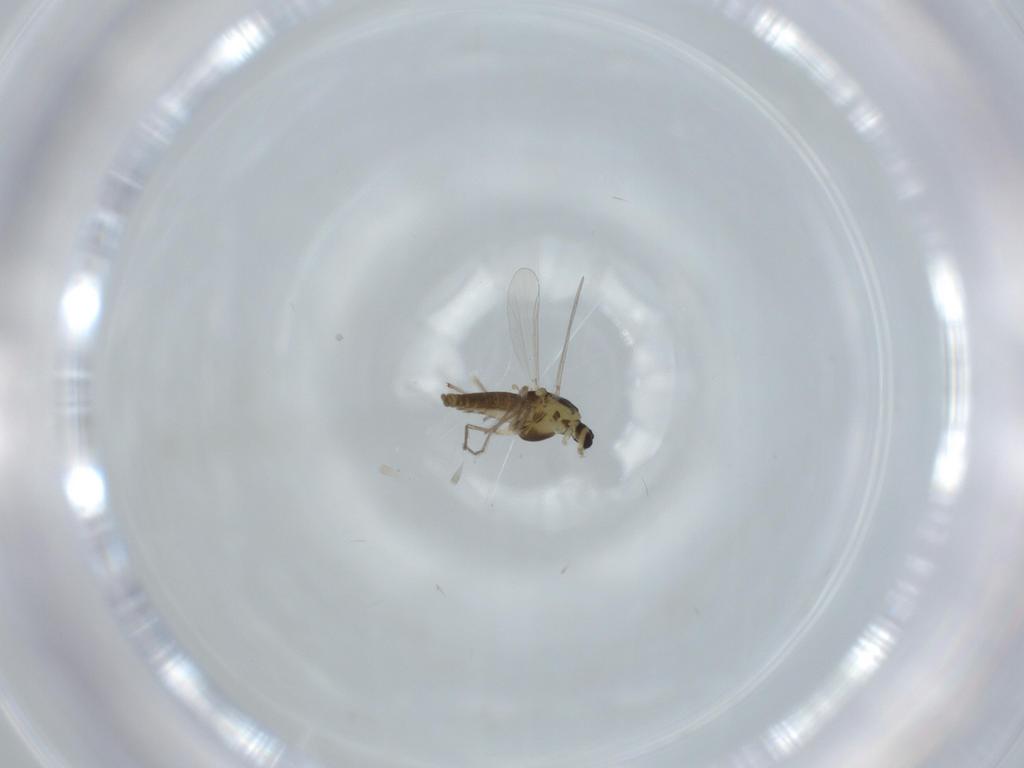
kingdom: Animalia
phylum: Arthropoda
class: Insecta
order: Diptera
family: Chironomidae
